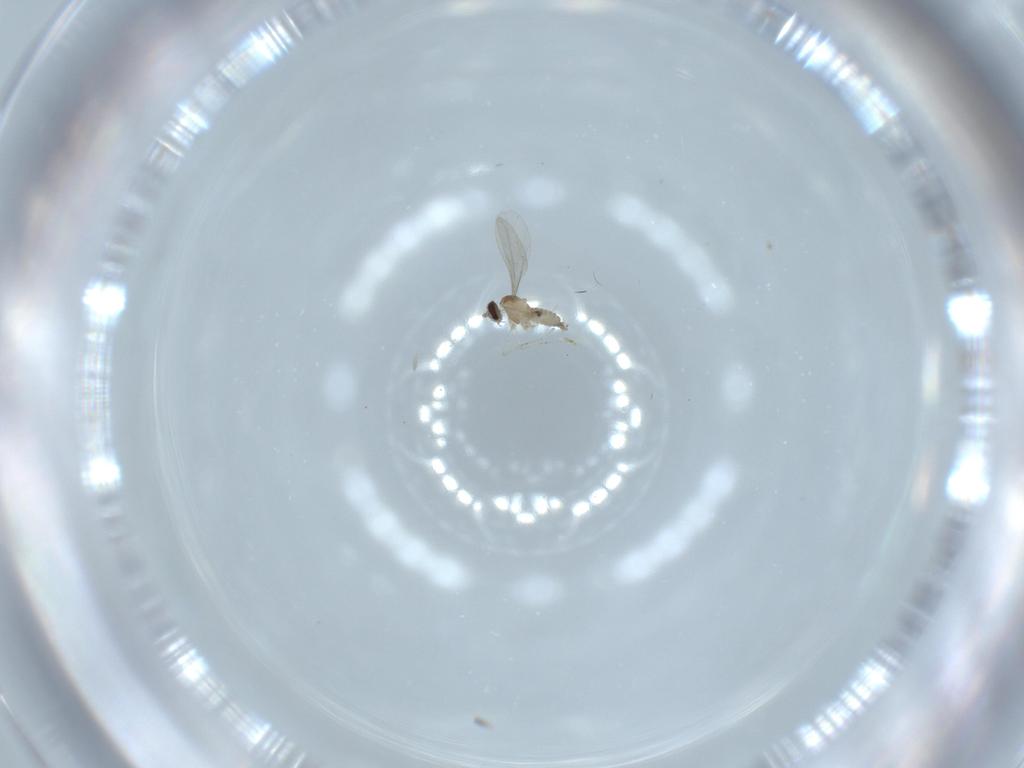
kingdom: Animalia
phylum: Arthropoda
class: Insecta
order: Diptera
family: Cecidomyiidae
